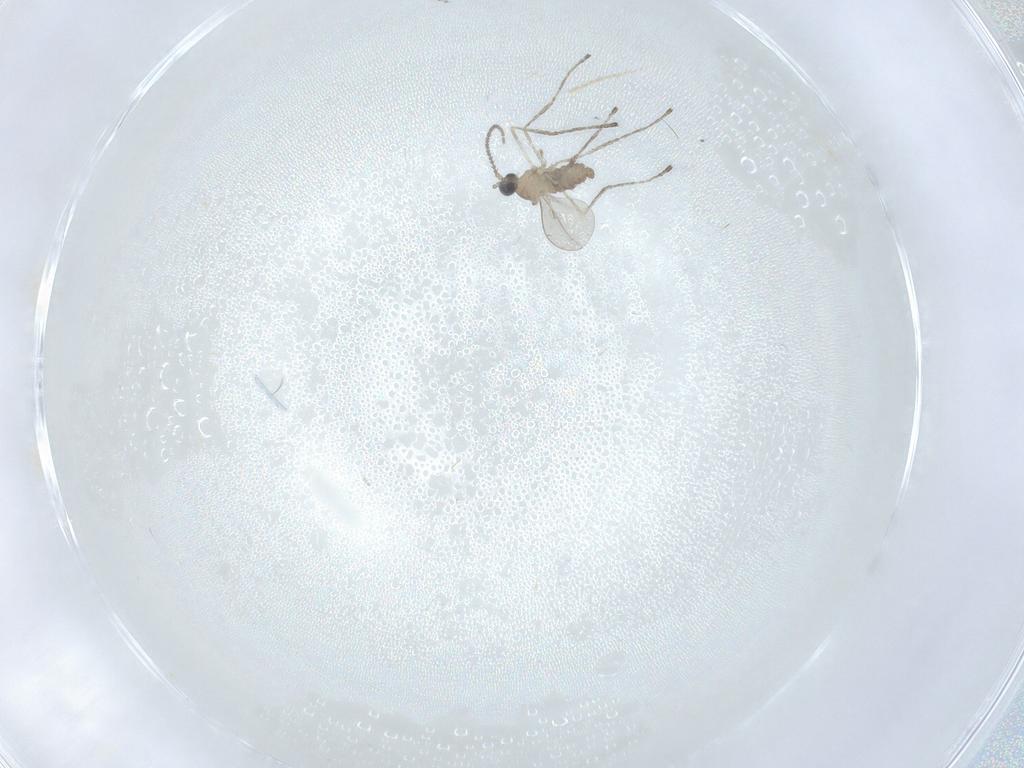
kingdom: Animalia
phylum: Arthropoda
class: Insecta
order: Diptera
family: Cecidomyiidae
